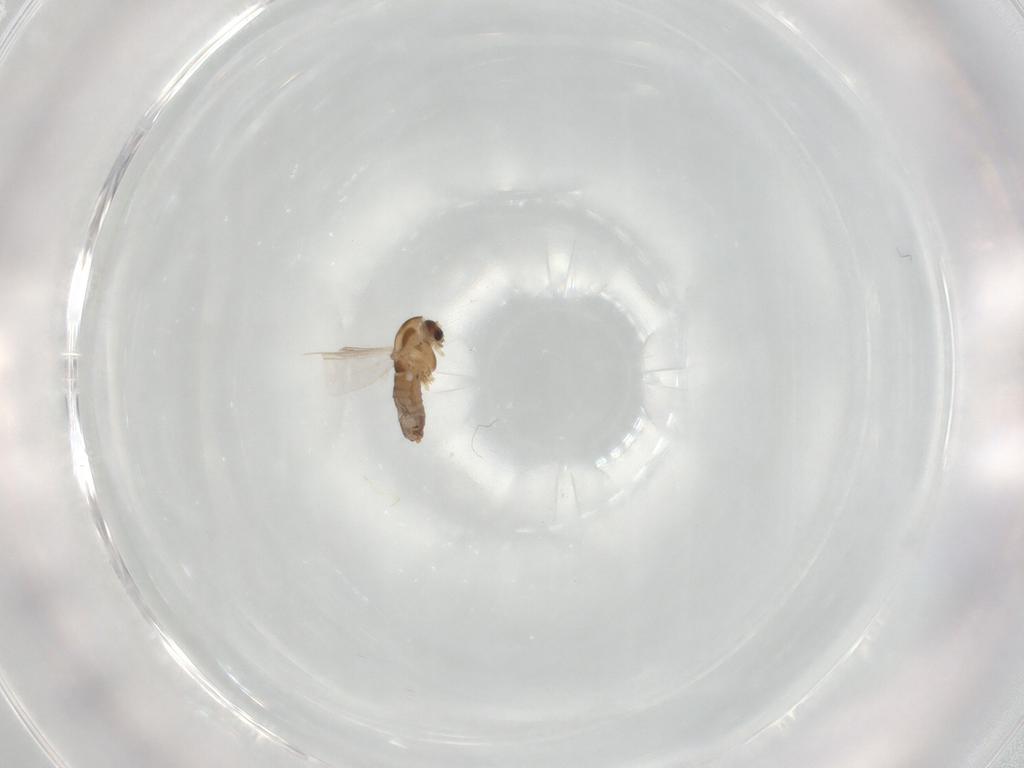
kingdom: Animalia
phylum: Arthropoda
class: Insecta
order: Diptera
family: Chironomidae
